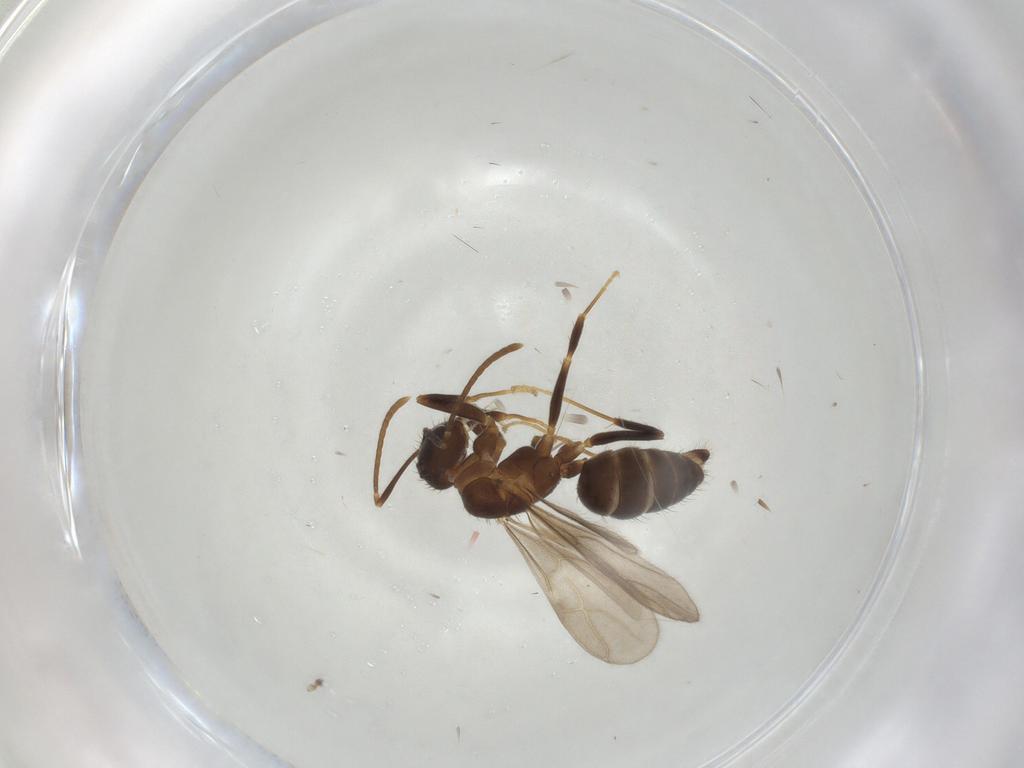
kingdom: Animalia
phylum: Arthropoda
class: Insecta
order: Hymenoptera
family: Formicidae
